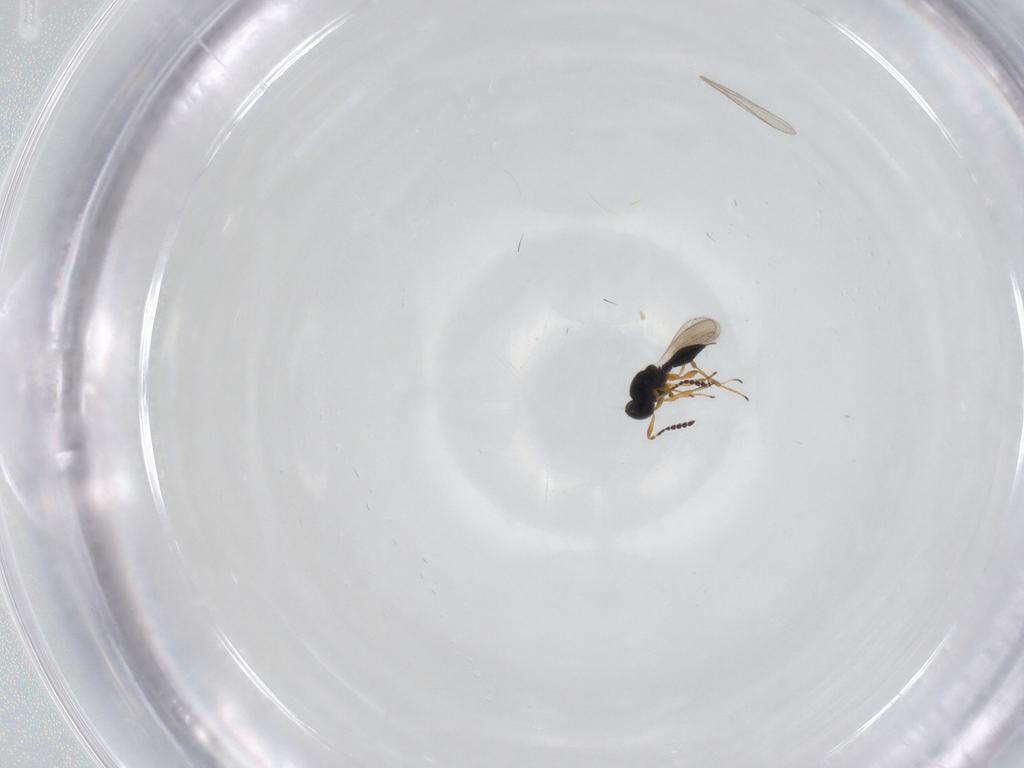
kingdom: Animalia
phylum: Arthropoda
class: Insecta
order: Hymenoptera
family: Platygastridae
